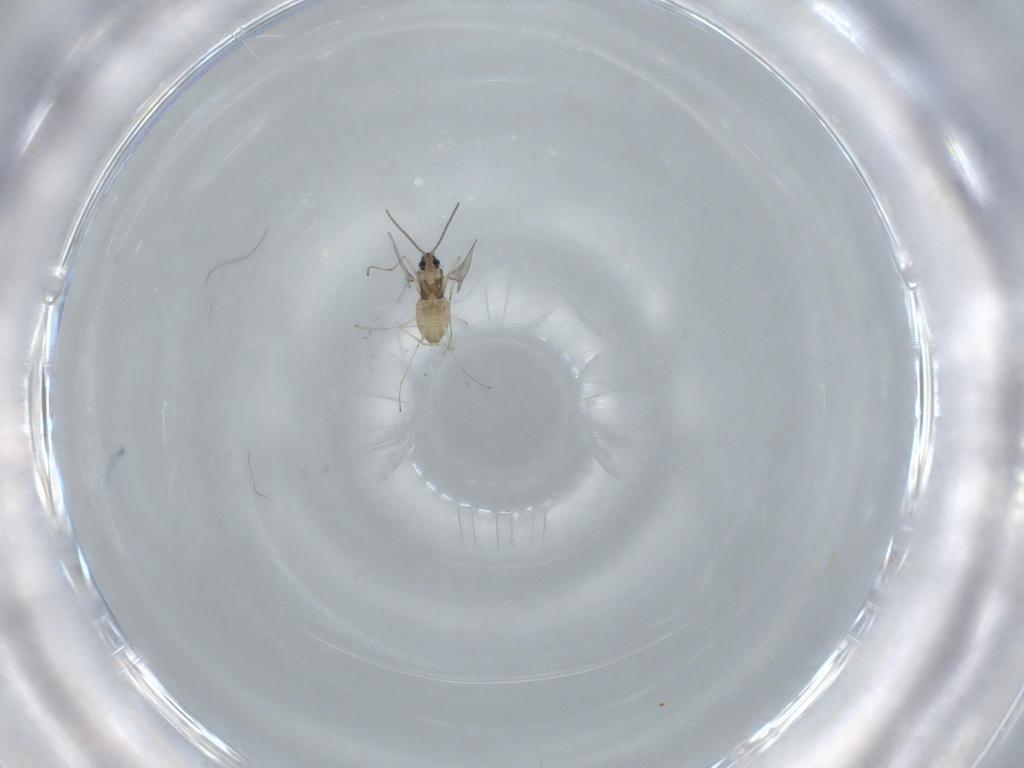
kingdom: Animalia
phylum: Arthropoda
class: Insecta
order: Diptera
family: Cecidomyiidae
